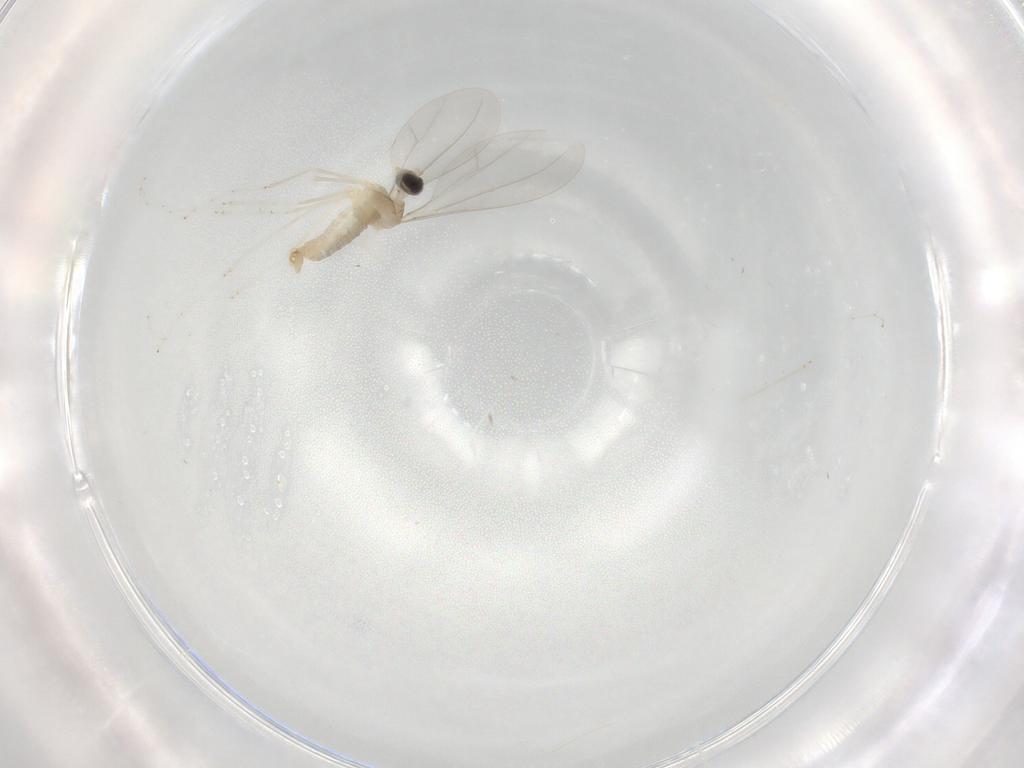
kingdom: Animalia
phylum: Arthropoda
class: Insecta
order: Diptera
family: Cecidomyiidae
